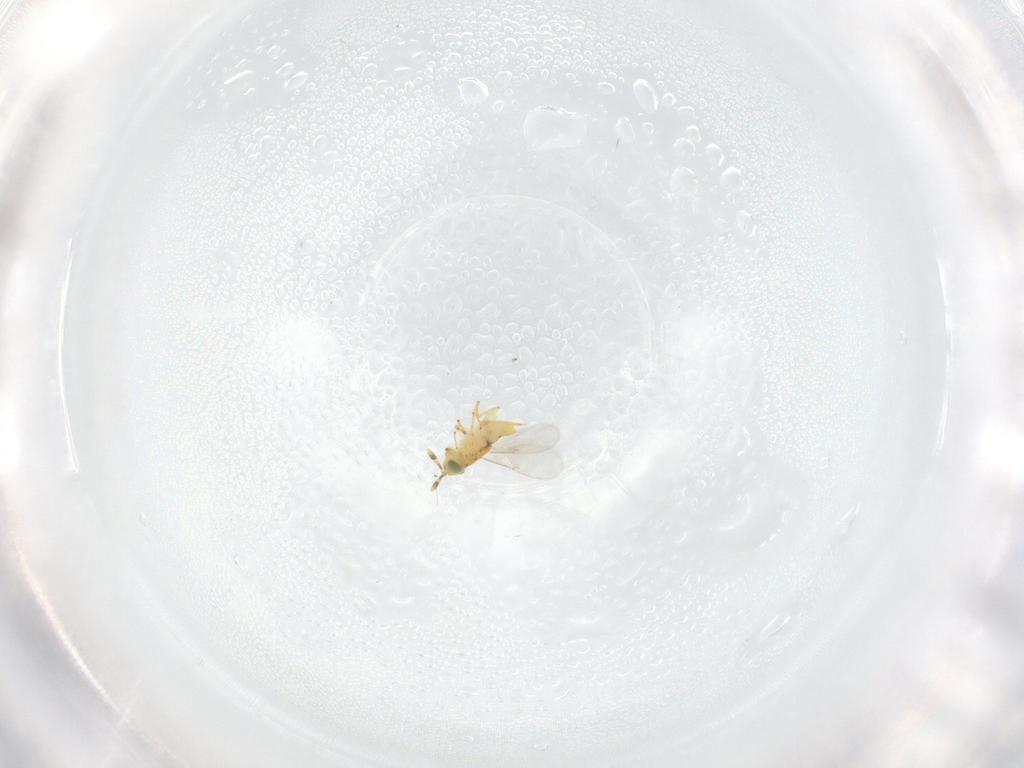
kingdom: Animalia
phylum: Arthropoda
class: Insecta
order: Hymenoptera
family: Encyrtidae
